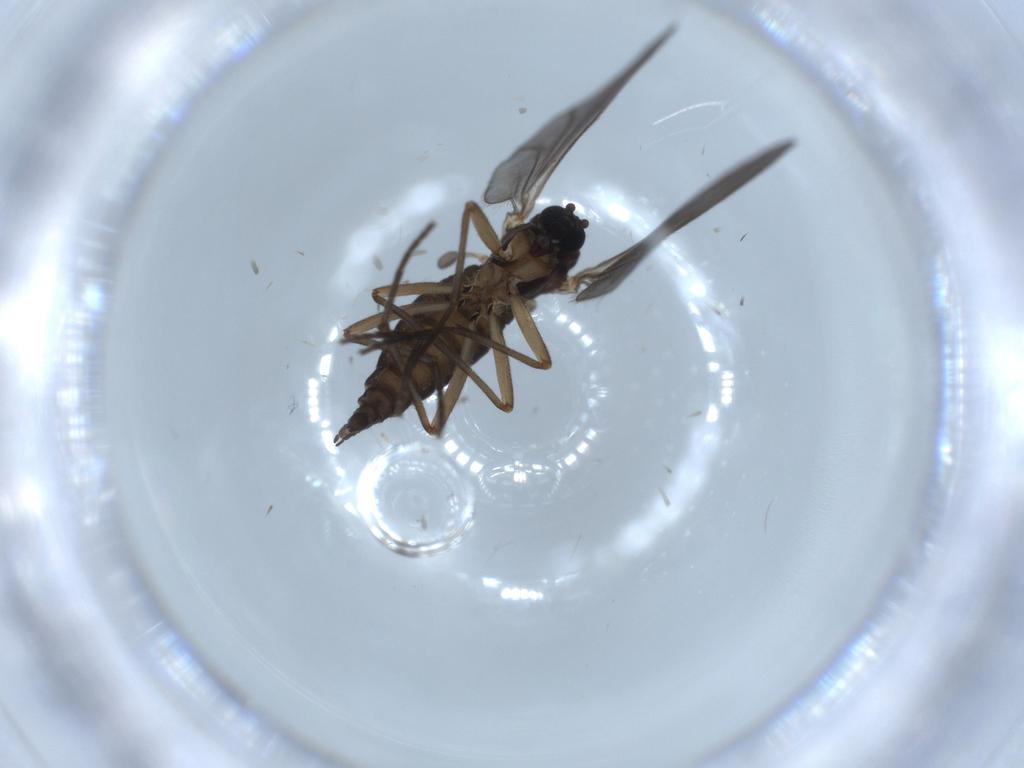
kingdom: Animalia
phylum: Arthropoda
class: Insecta
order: Diptera
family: Sciaridae
